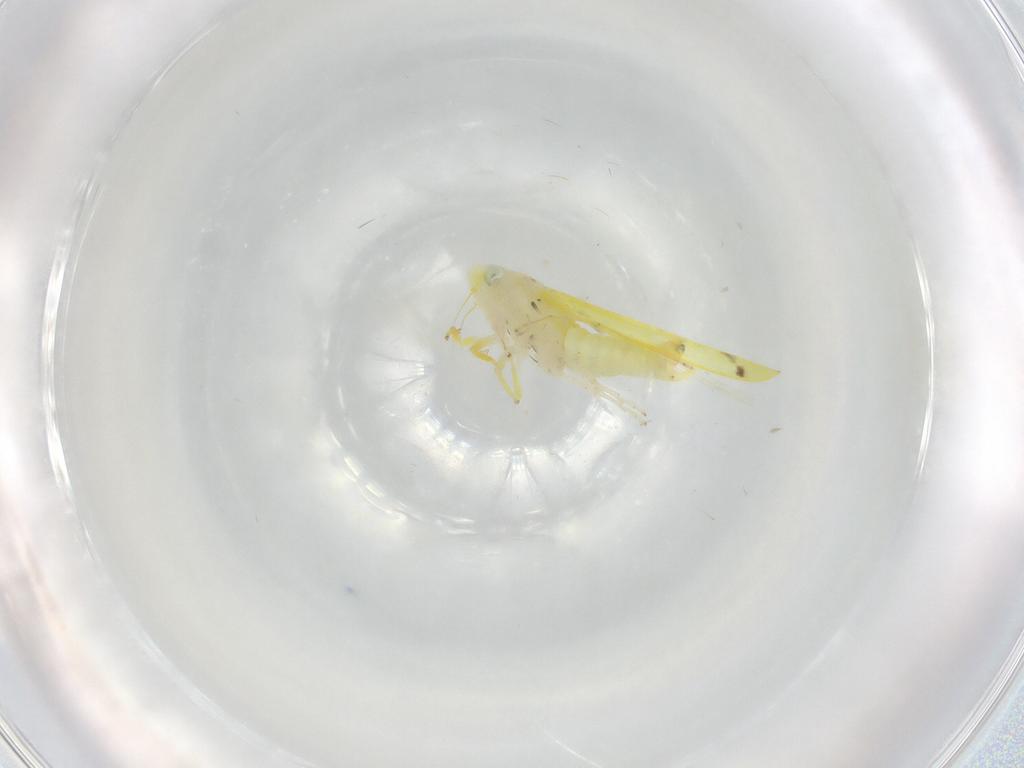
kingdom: Animalia
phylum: Arthropoda
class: Insecta
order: Hemiptera
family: Cicadellidae
